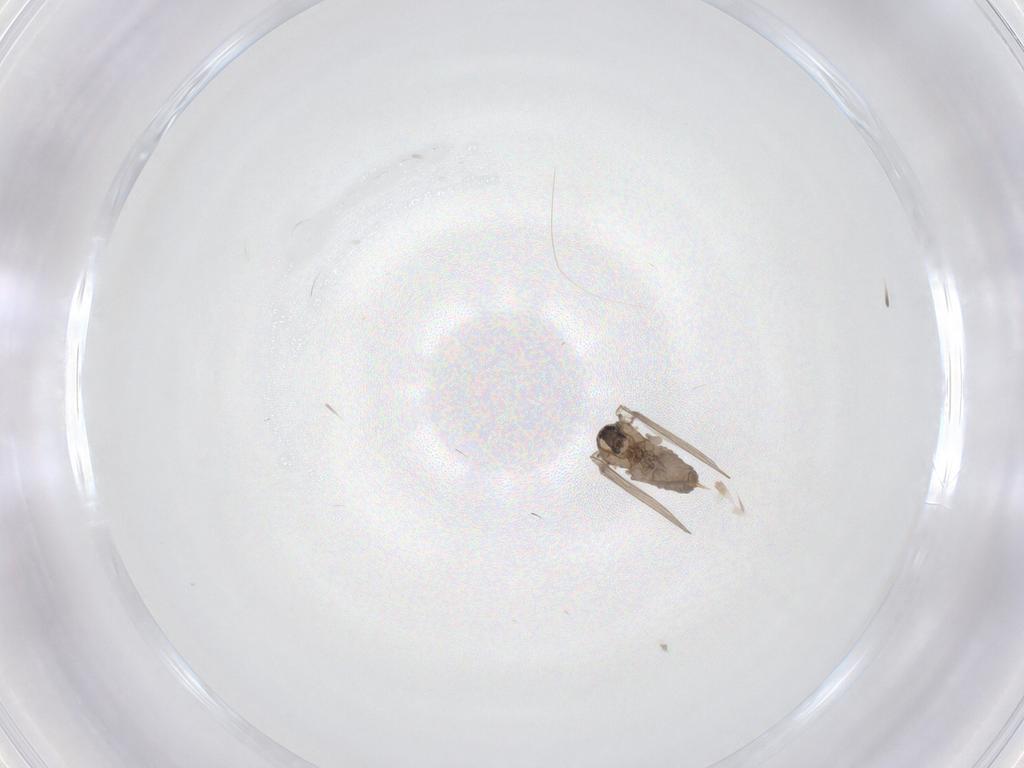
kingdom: Animalia
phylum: Arthropoda
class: Insecta
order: Diptera
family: Psychodidae
